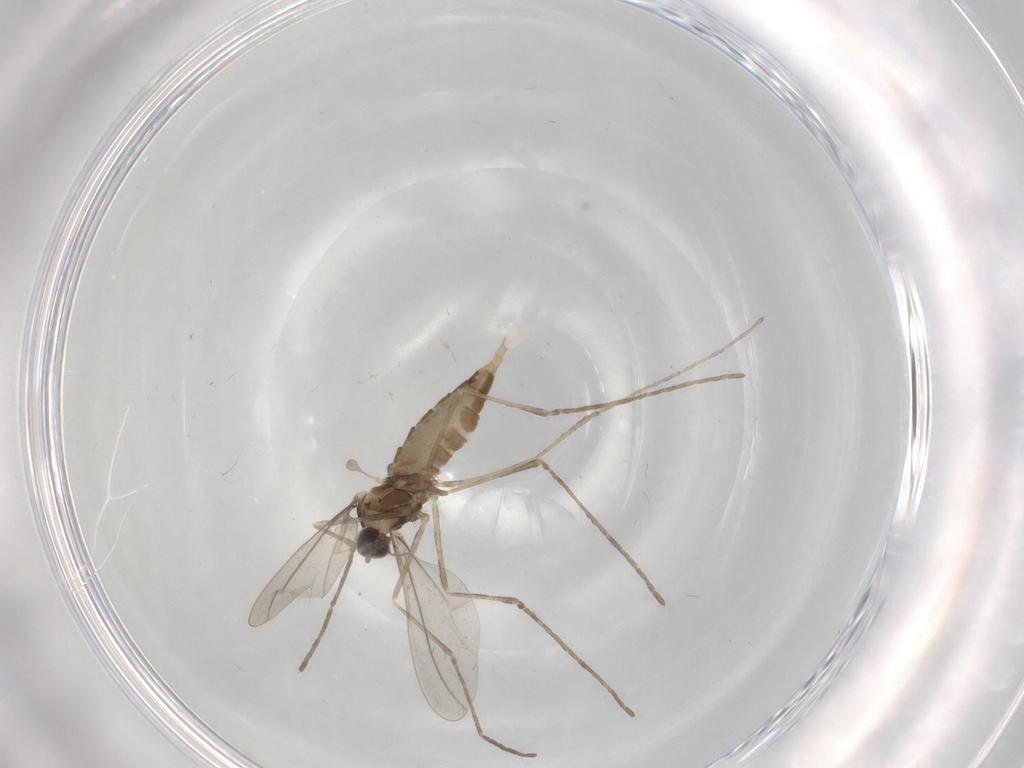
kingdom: Animalia
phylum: Arthropoda
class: Insecta
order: Diptera
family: Cecidomyiidae
